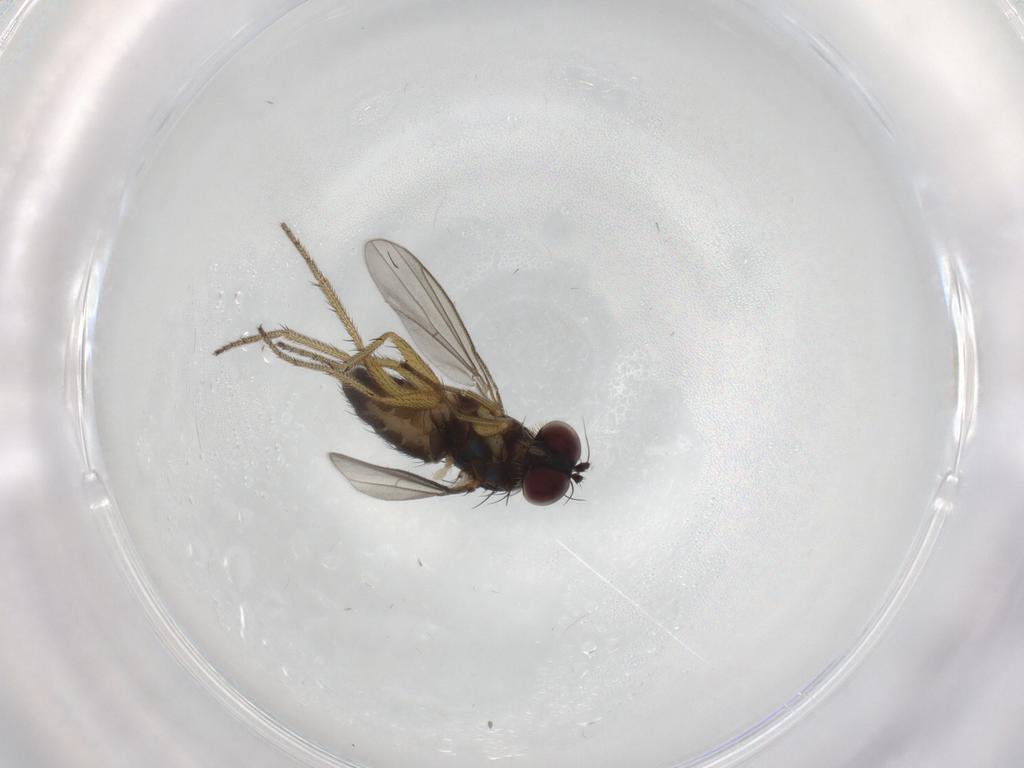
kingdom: Animalia
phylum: Arthropoda
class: Insecta
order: Diptera
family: Dolichopodidae
